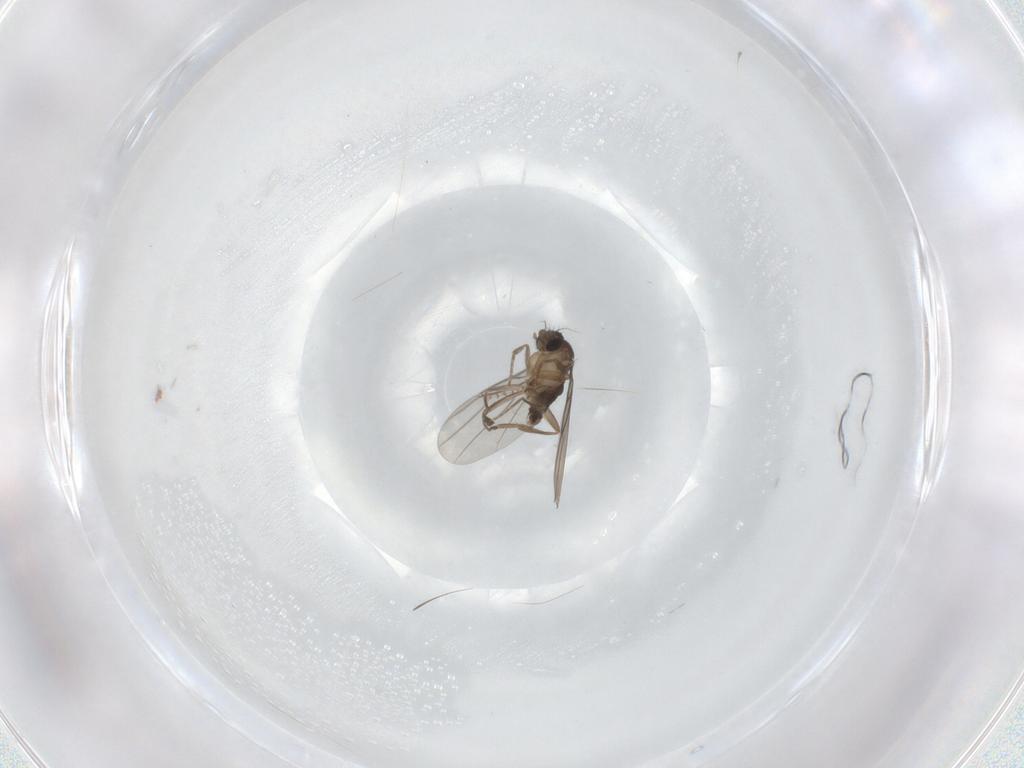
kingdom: Animalia
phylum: Arthropoda
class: Insecta
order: Diptera
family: Phoridae
